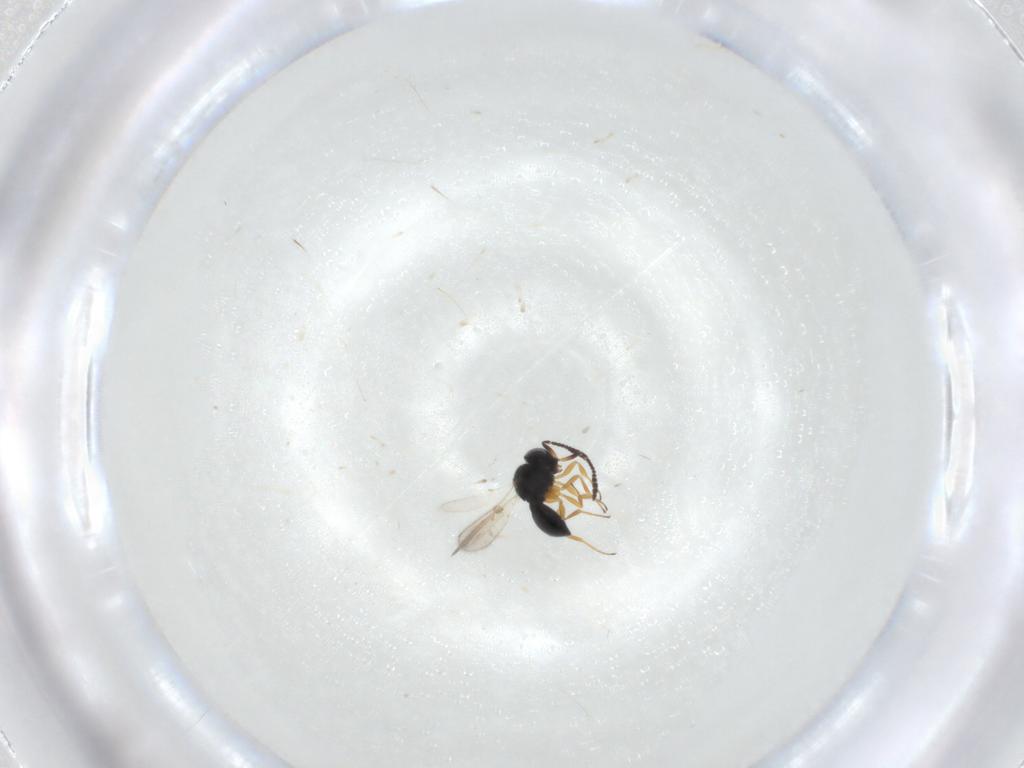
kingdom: Animalia
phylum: Arthropoda
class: Insecta
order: Hymenoptera
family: Scelionidae
